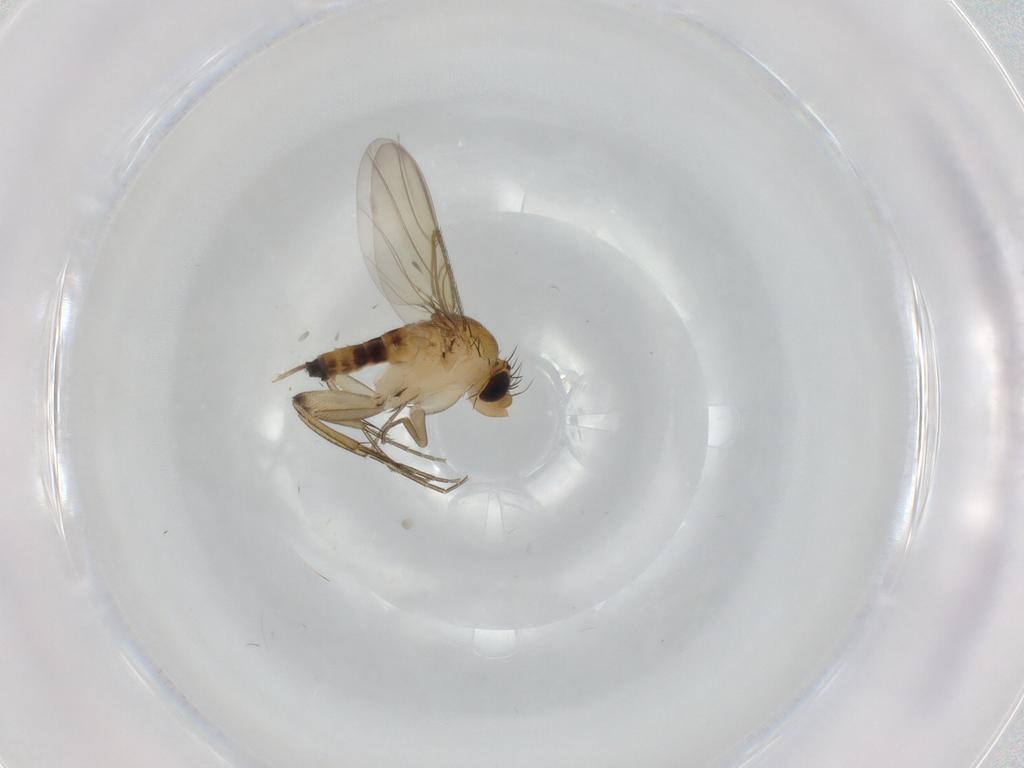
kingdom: Animalia
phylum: Arthropoda
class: Insecta
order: Diptera
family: Phoridae
